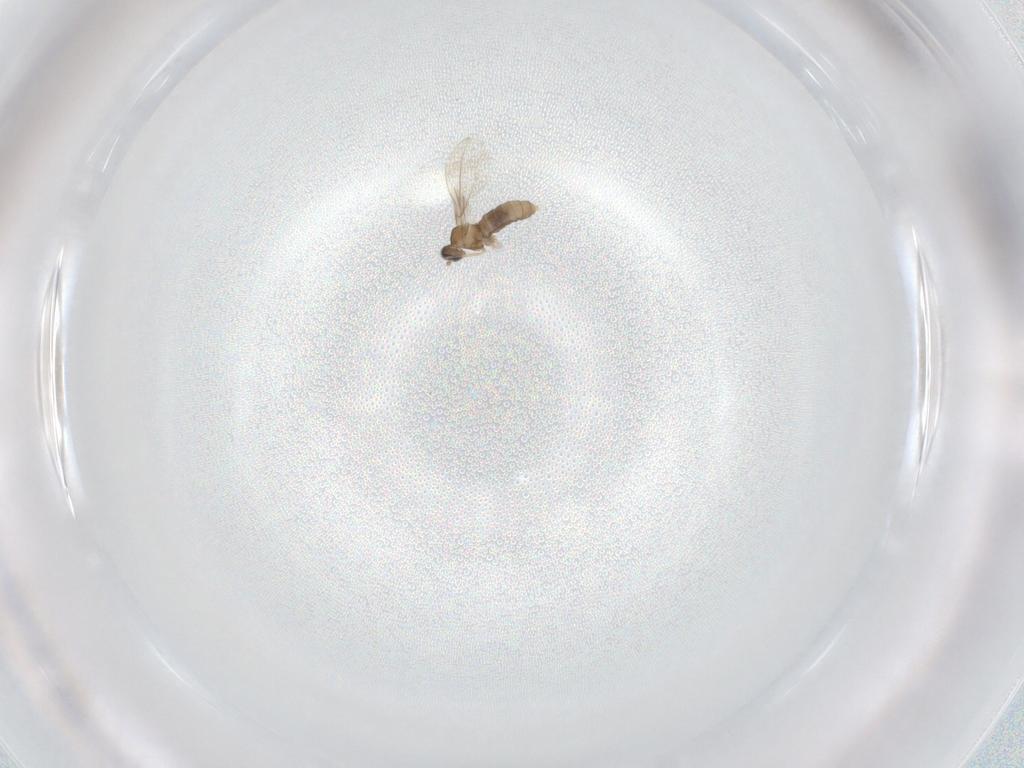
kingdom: Animalia
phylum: Arthropoda
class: Insecta
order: Diptera
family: Cecidomyiidae
